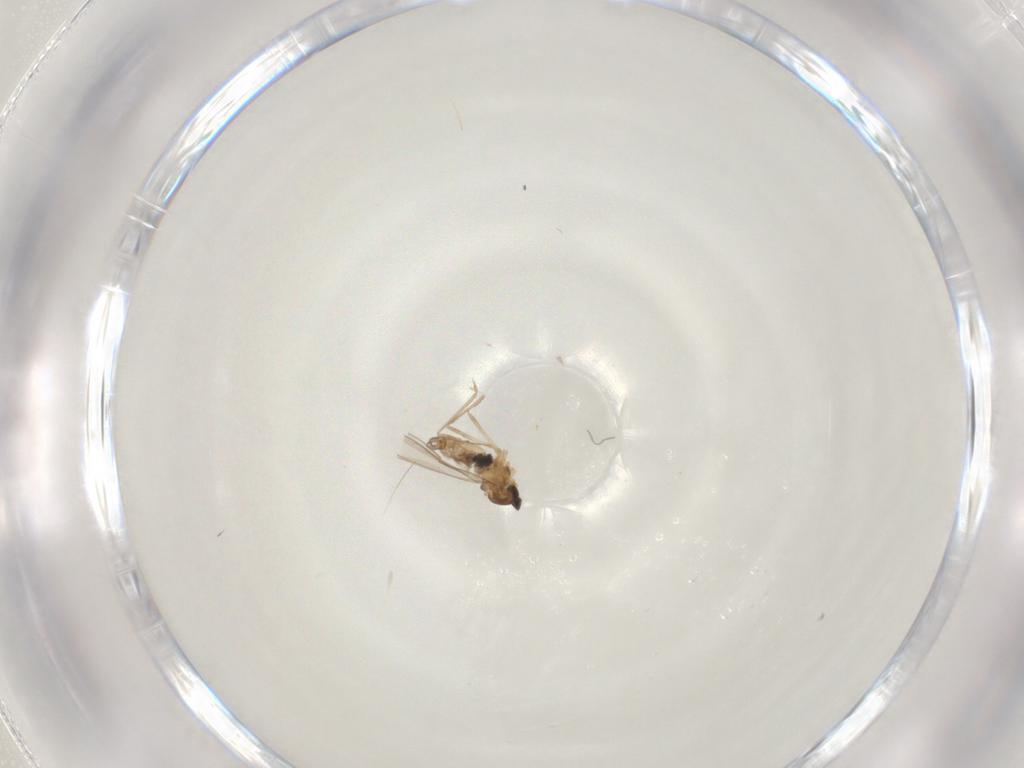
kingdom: Animalia
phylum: Arthropoda
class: Insecta
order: Diptera
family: Cecidomyiidae
